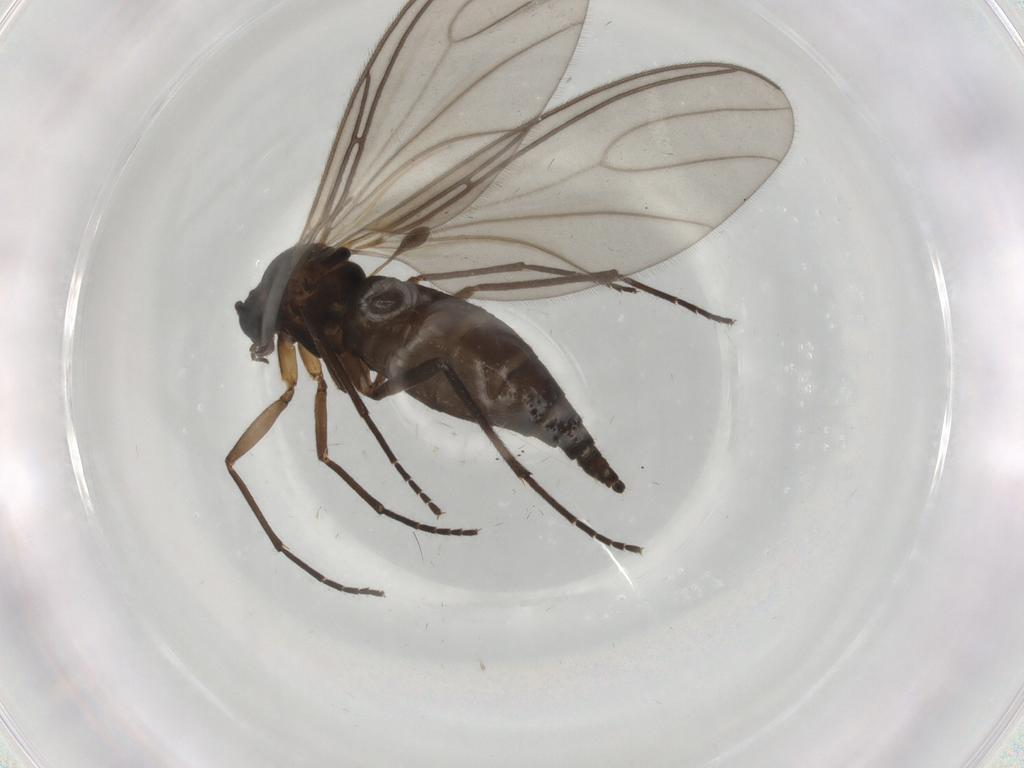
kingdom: Animalia
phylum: Arthropoda
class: Insecta
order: Diptera
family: Sciaridae
